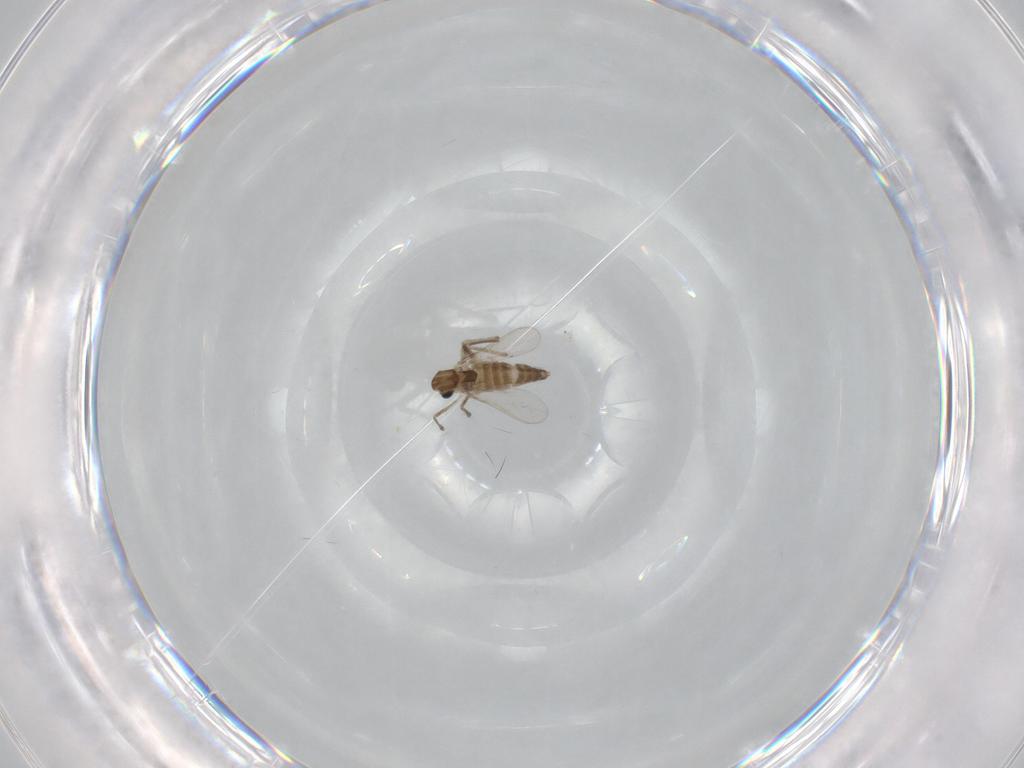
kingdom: Animalia
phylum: Arthropoda
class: Insecta
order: Diptera
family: Chironomidae
